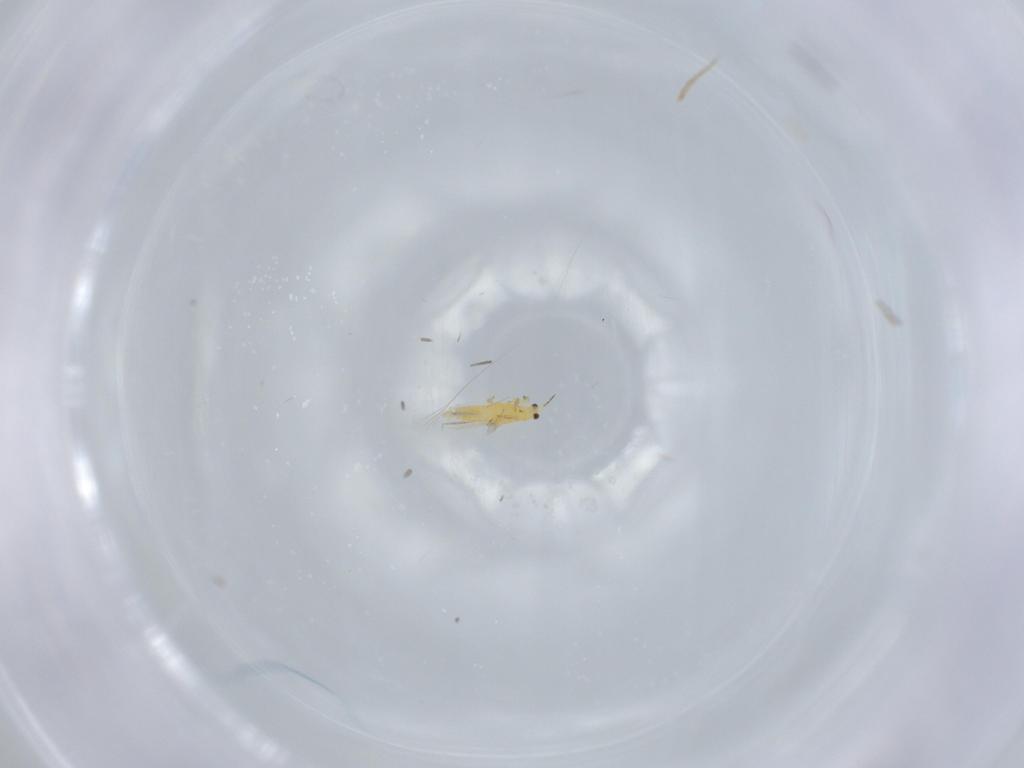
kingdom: Animalia
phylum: Arthropoda
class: Insecta
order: Thysanoptera
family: Thripidae
